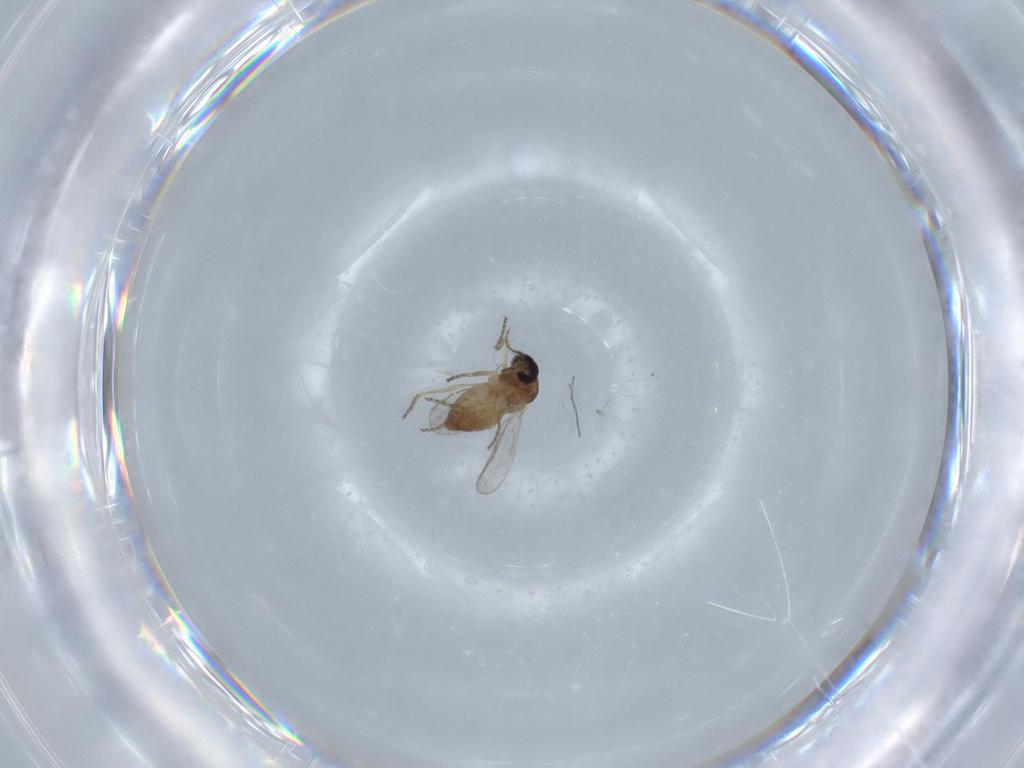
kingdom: Animalia
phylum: Arthropoda
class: Insecta
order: Diptera
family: Ceratopogonidae
